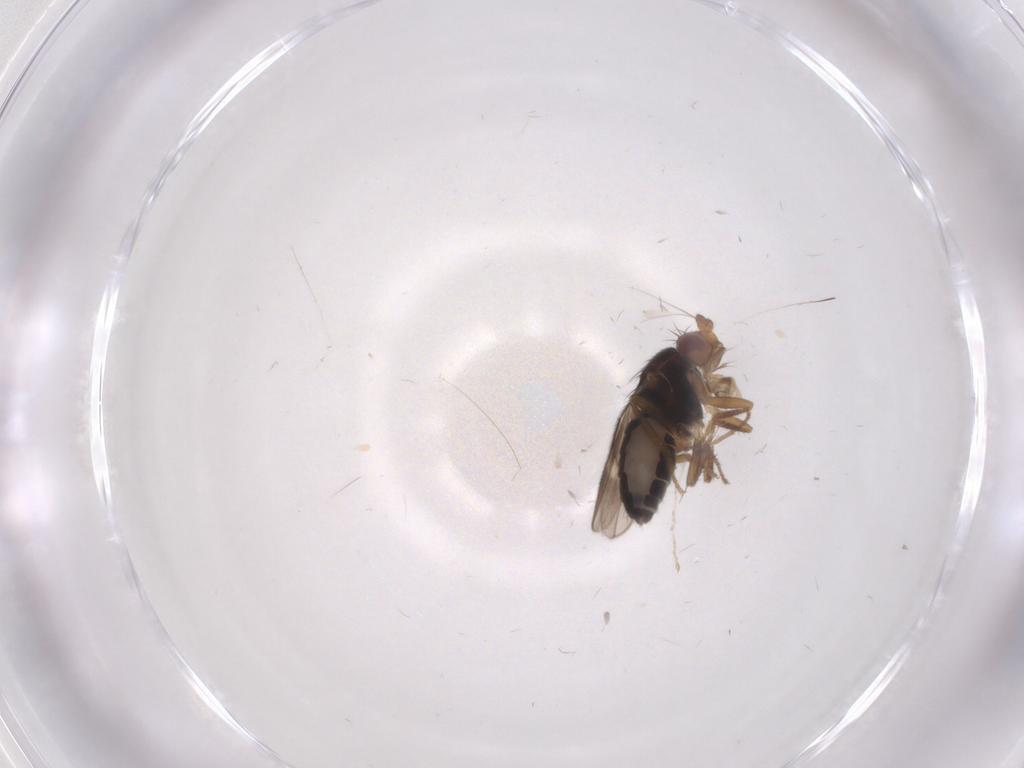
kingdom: Animalia
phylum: Arthropoda
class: Insecta
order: Diptera
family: Sphaeroceridae
